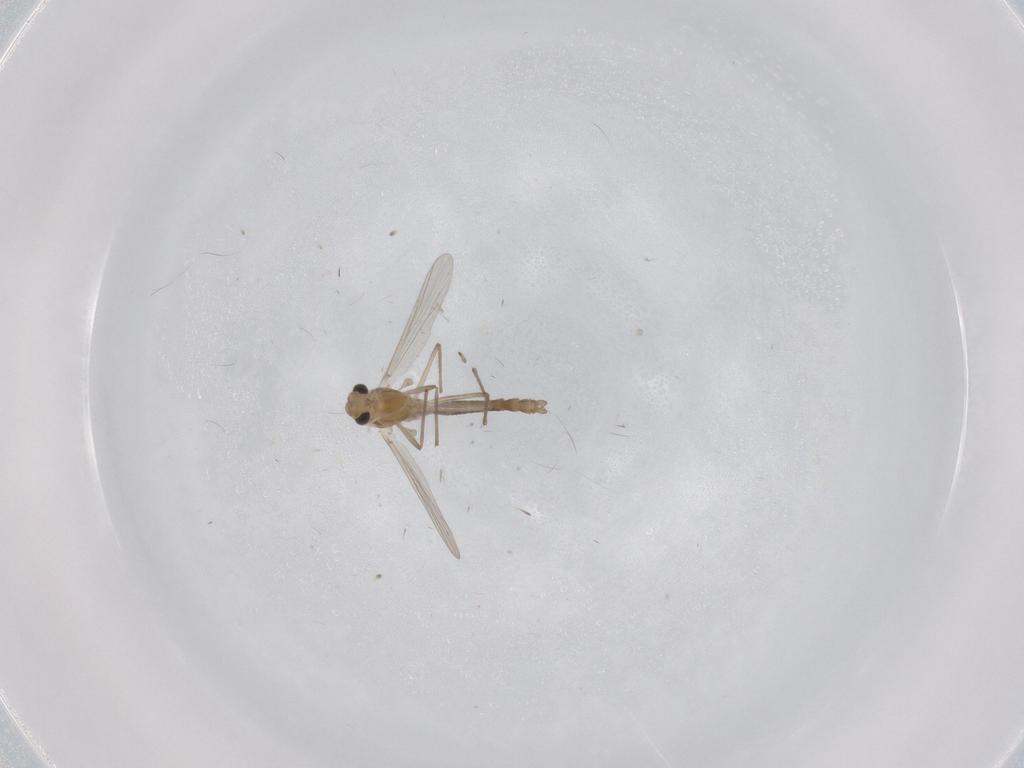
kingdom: Animalia
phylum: Arthropoda
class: Insecta
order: Diptera
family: Chironomidae
